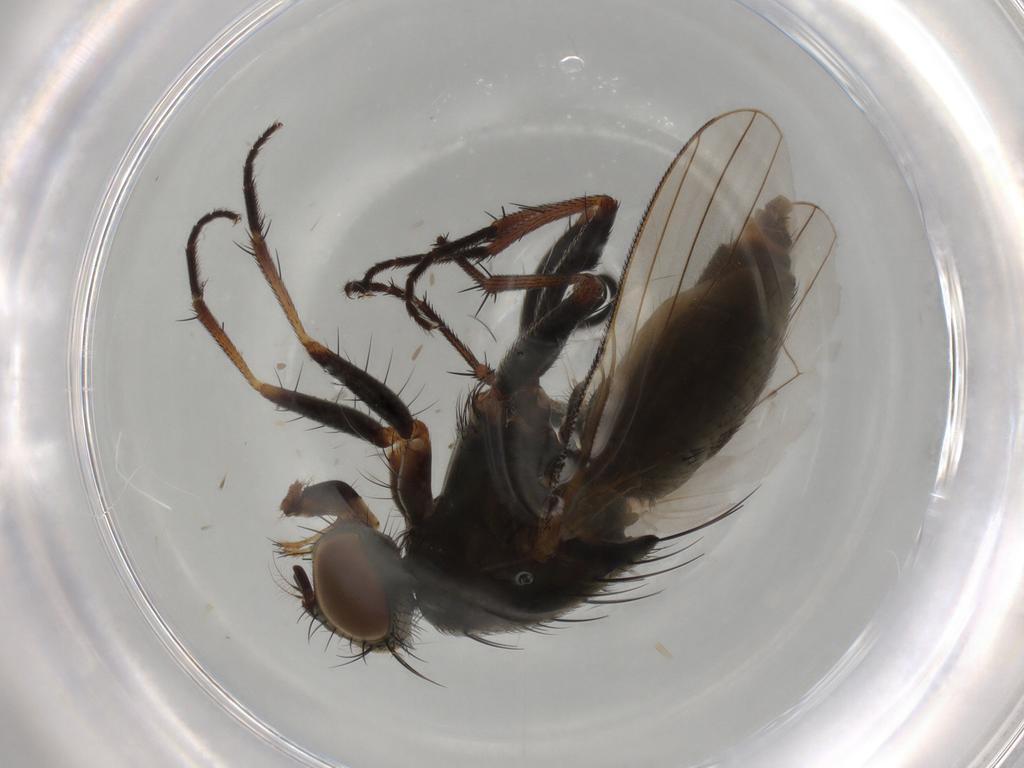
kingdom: Animalia
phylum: Arthropoda
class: Insecta
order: Diptera
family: Muscidae
